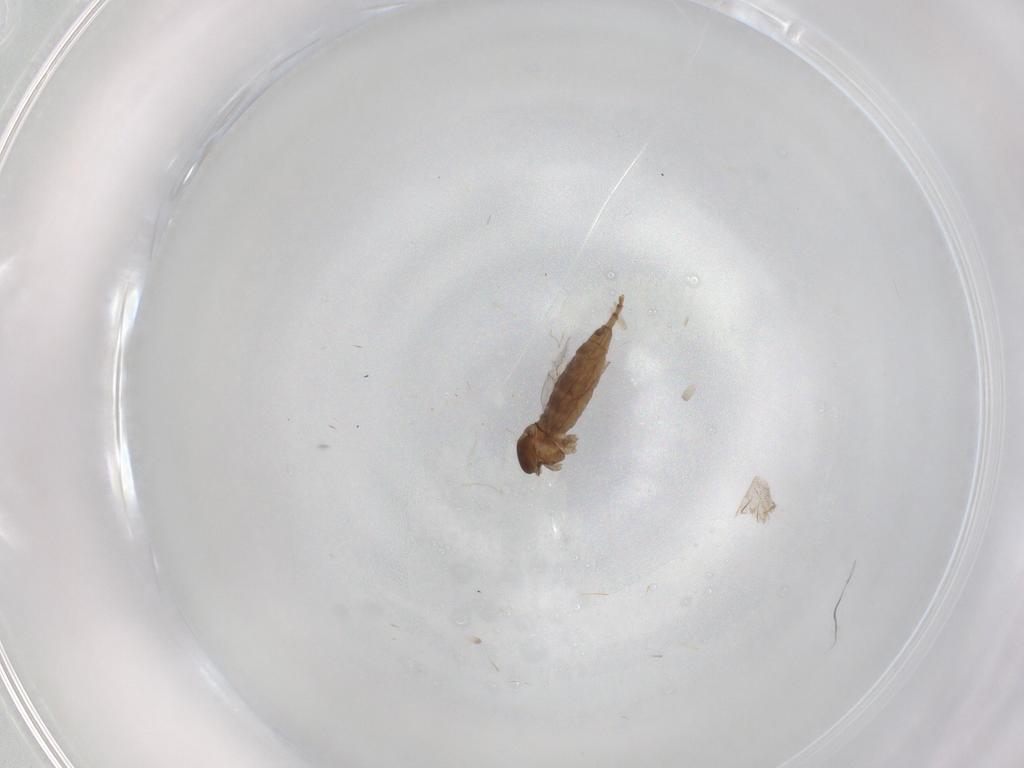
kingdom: Animalia
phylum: Arthropoda
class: Insecta
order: Diptera
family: Cecidomyiidae
